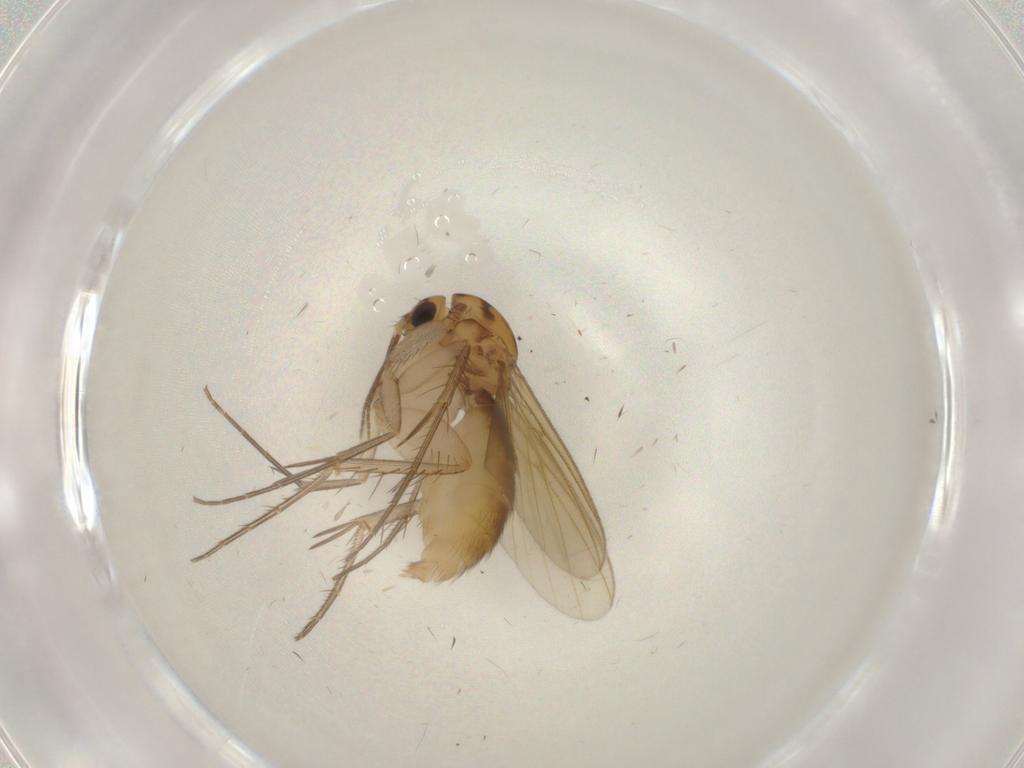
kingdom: Animalia
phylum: Arthropoda
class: Insecta
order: Diptera
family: Mycetophilidae
